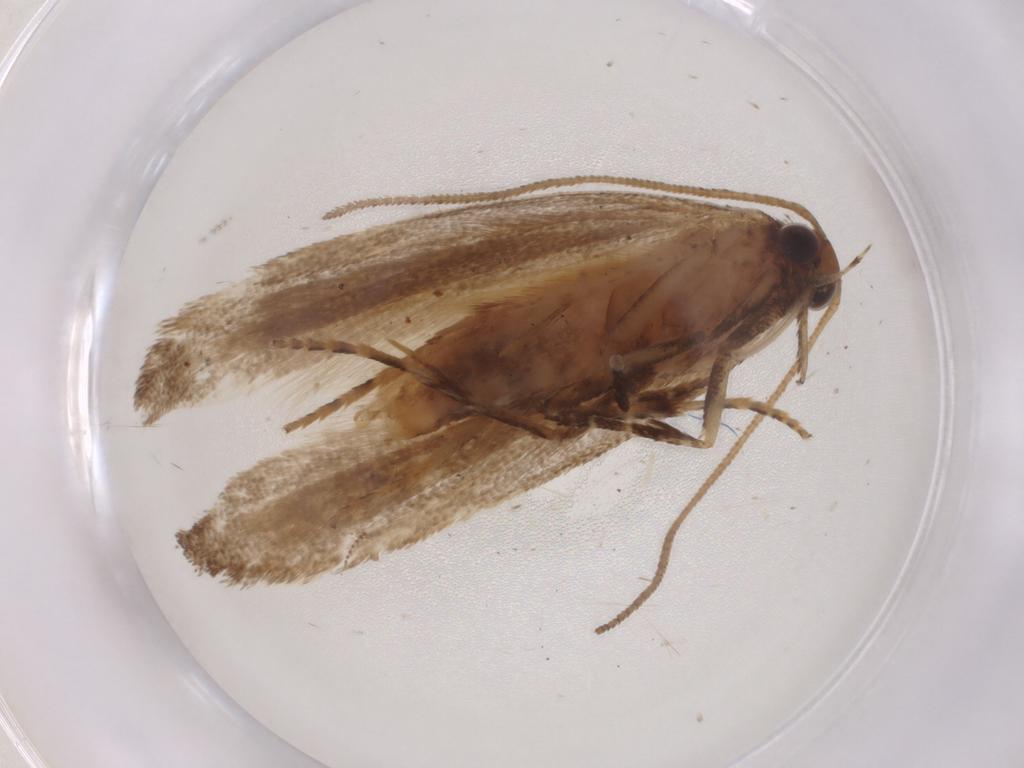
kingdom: Animalia
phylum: Arthropoda
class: Insecta
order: Lepidoptera
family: Gelechiidae
